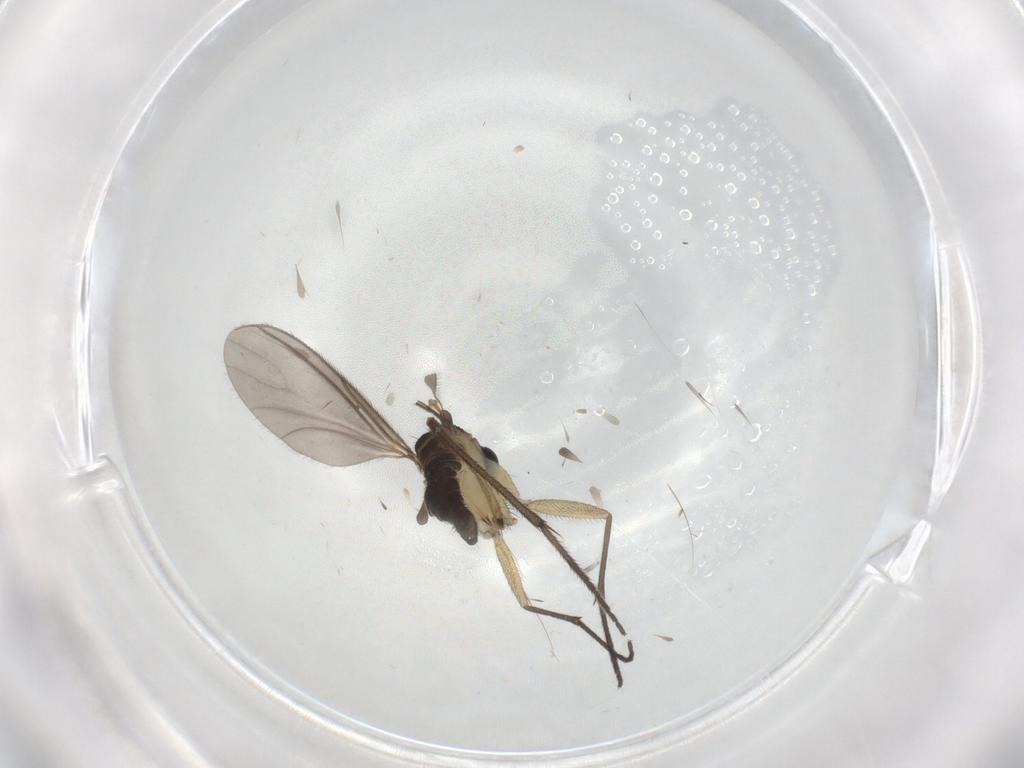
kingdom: Animalia
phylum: Arthropoda
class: Insecta
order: Diptera
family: Sciaridae
